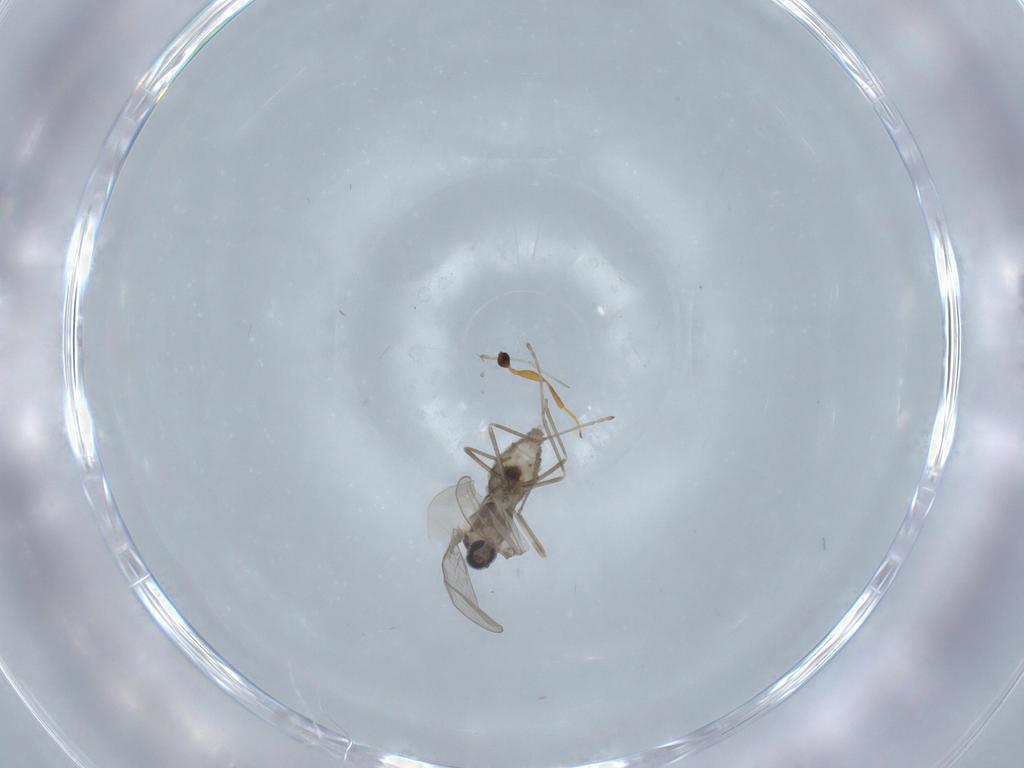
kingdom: Animalia
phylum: Arthropoda
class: Insecta
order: Diptera
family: Cecidomyiidae
